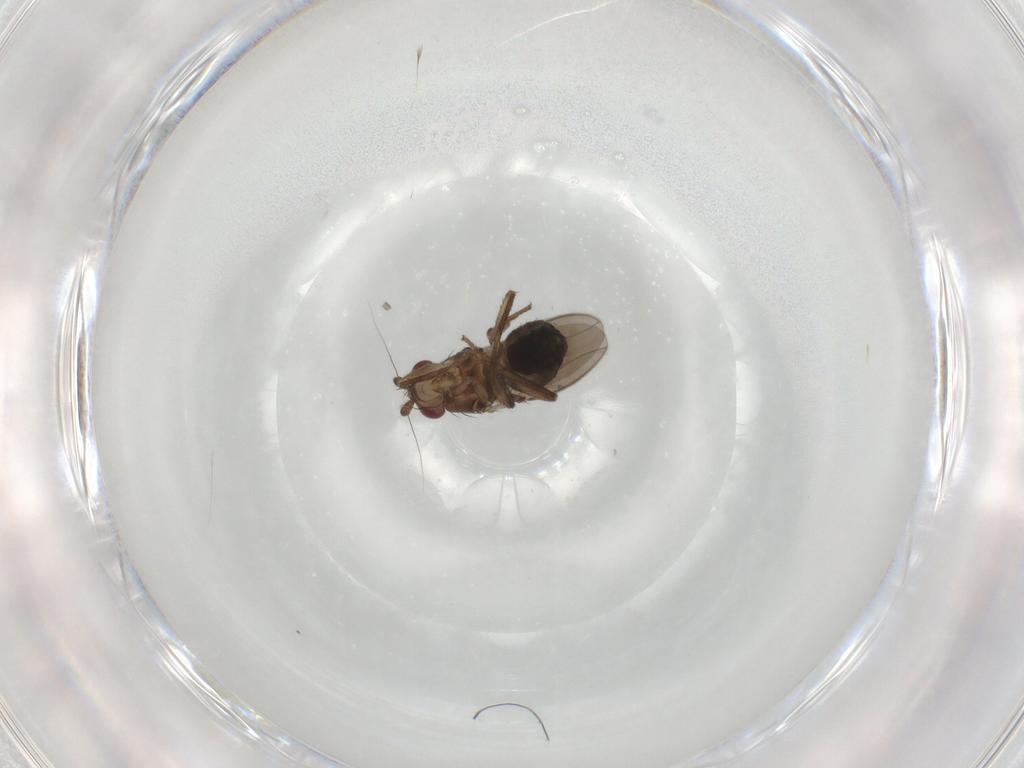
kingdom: Animalia
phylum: Arthropoda
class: Insecta
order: Diptera
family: Sphaeroceridae
